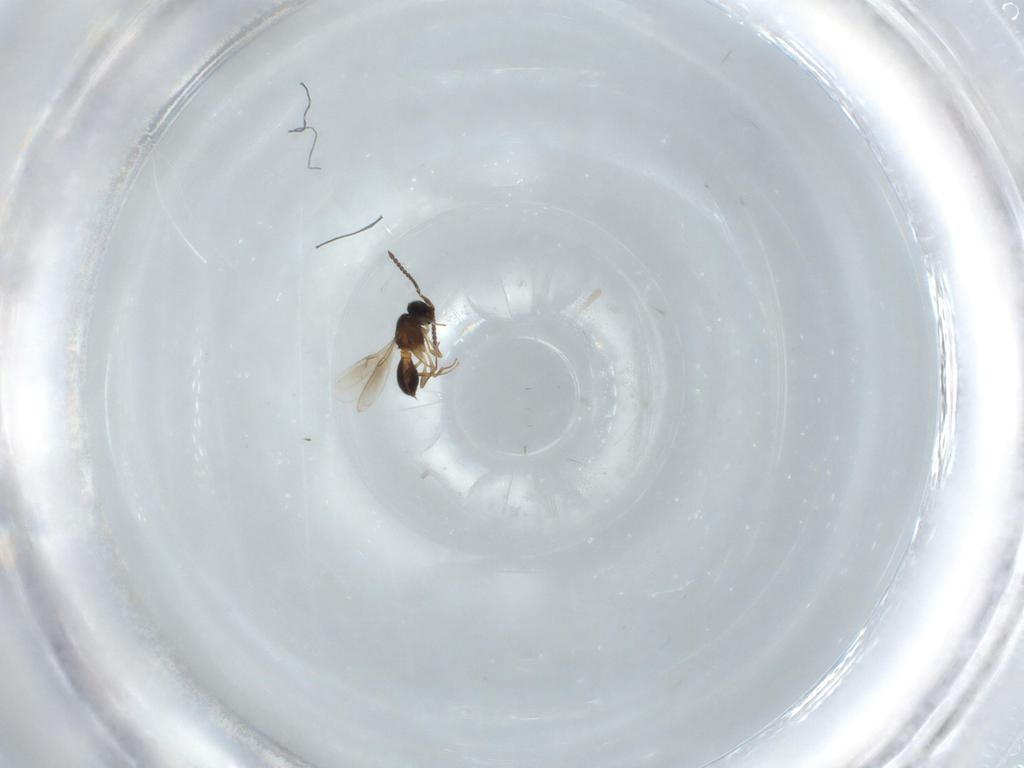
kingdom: Animalia
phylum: Arthropoda
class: Insecta
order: Hymenoptera
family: Scelionidae
